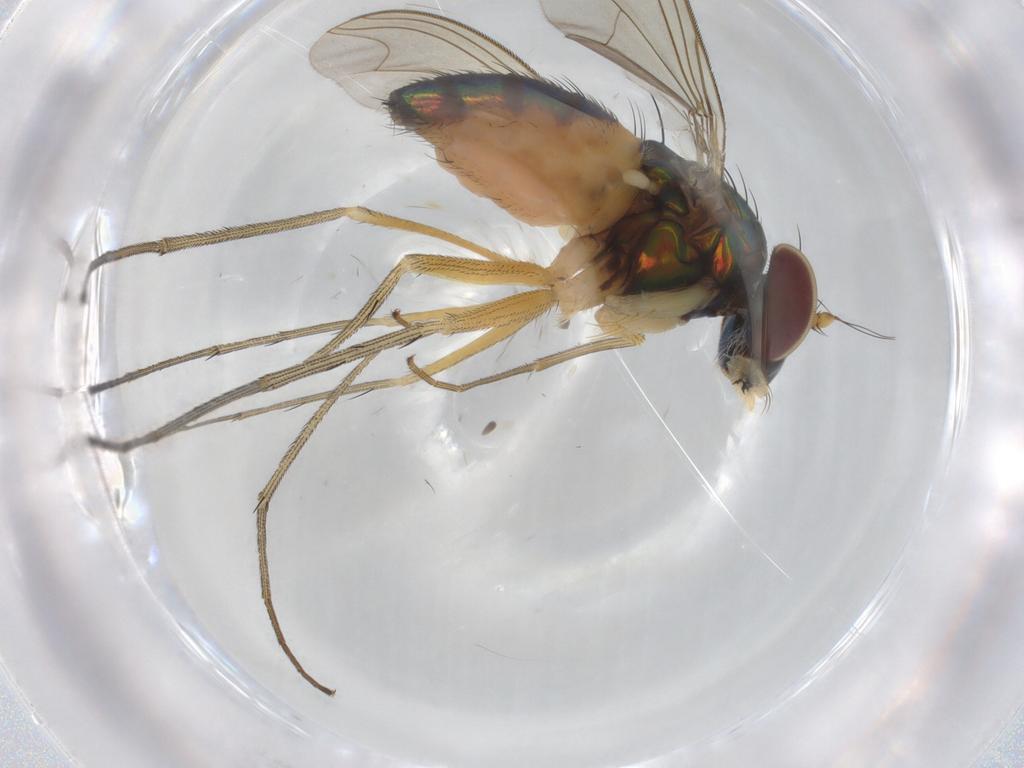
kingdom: Animalia
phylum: Arthropoda
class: Insecta
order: Diptera
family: Dolichopodidae
